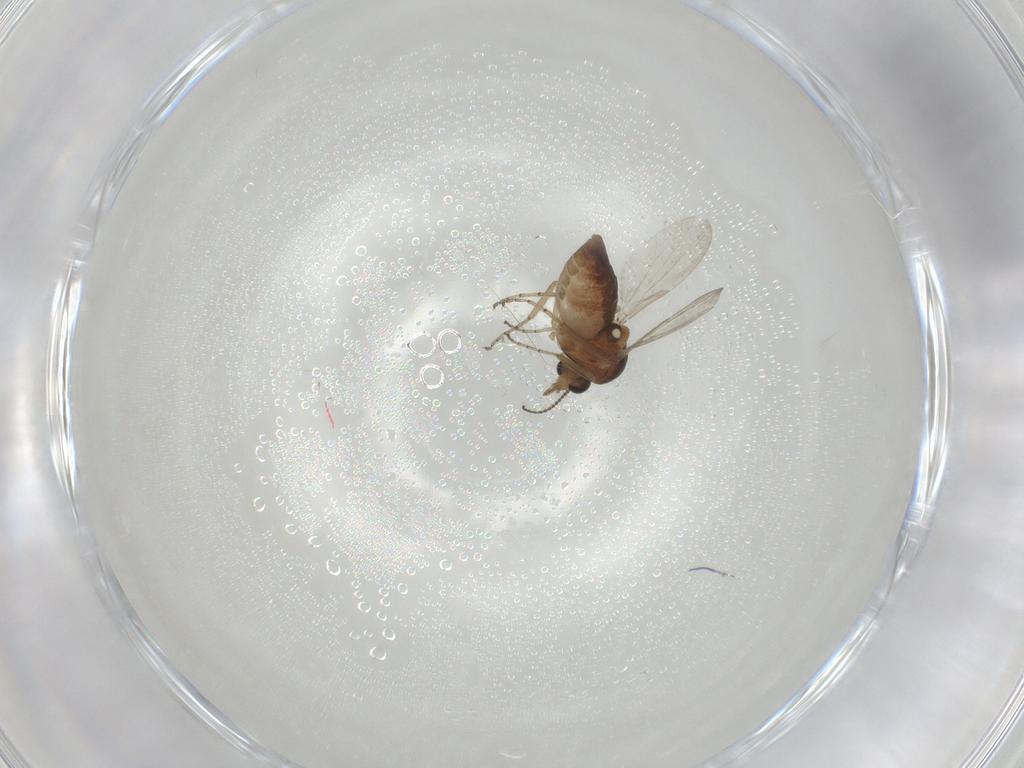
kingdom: Animalia
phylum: Arthropoda
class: Insecta
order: Diptera
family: Ceratopogonidae
